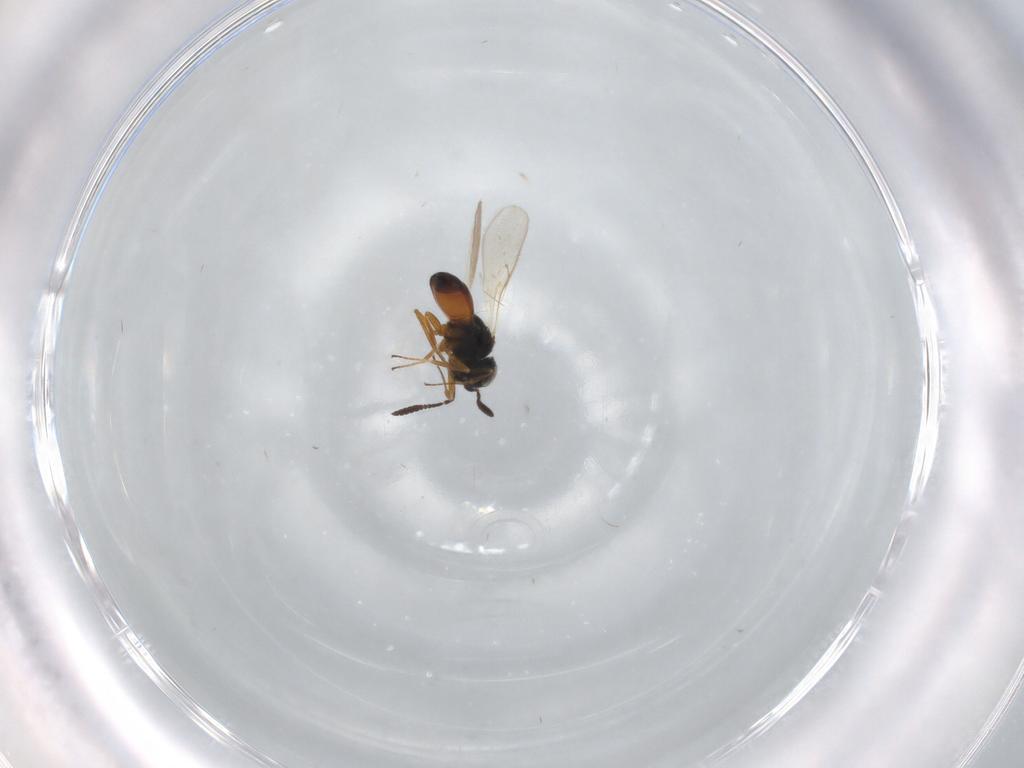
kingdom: Animalia
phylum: Arthropoda
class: Insecta
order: Hymenoptera
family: Scelionidae
